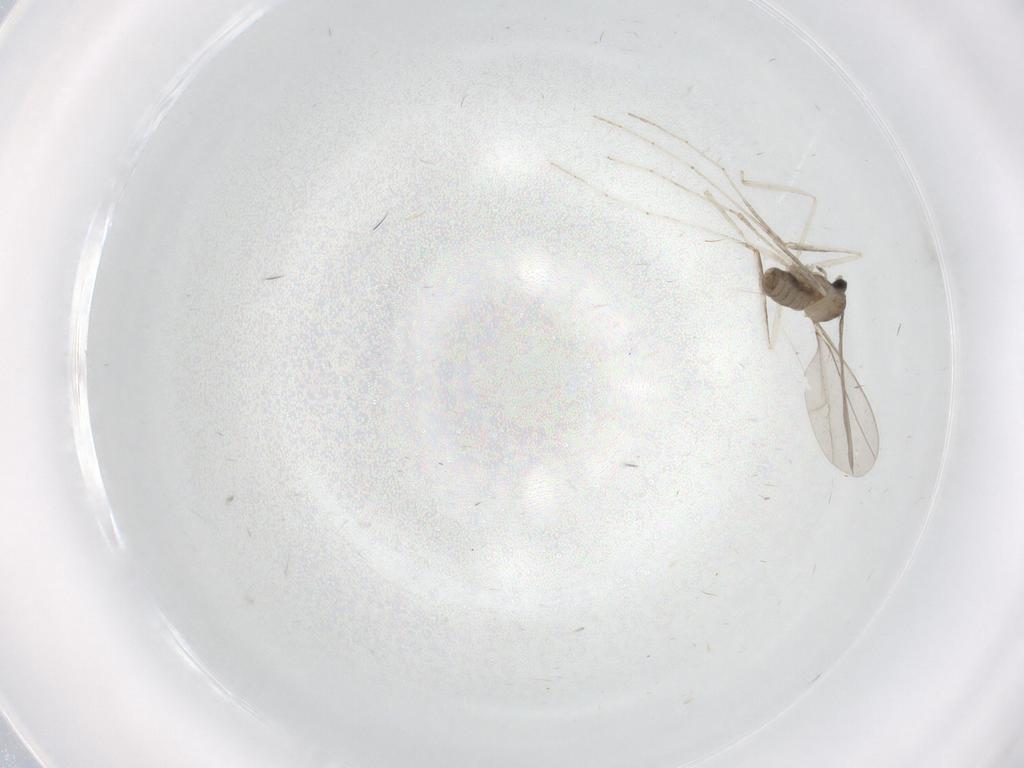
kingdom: Animalia
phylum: Arthropoda
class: Insecta
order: Diptera
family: Cecidomyiidae
